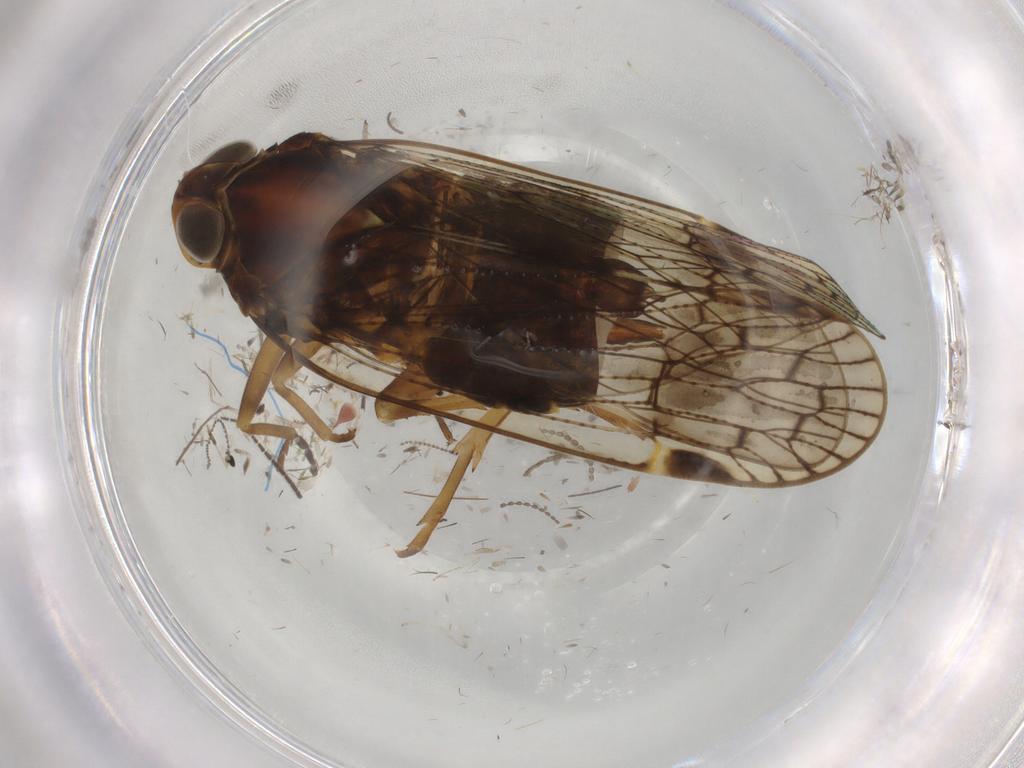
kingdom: Animalia
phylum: Arthropoda
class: Insecta
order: Hemiptera
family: Cixiidae
